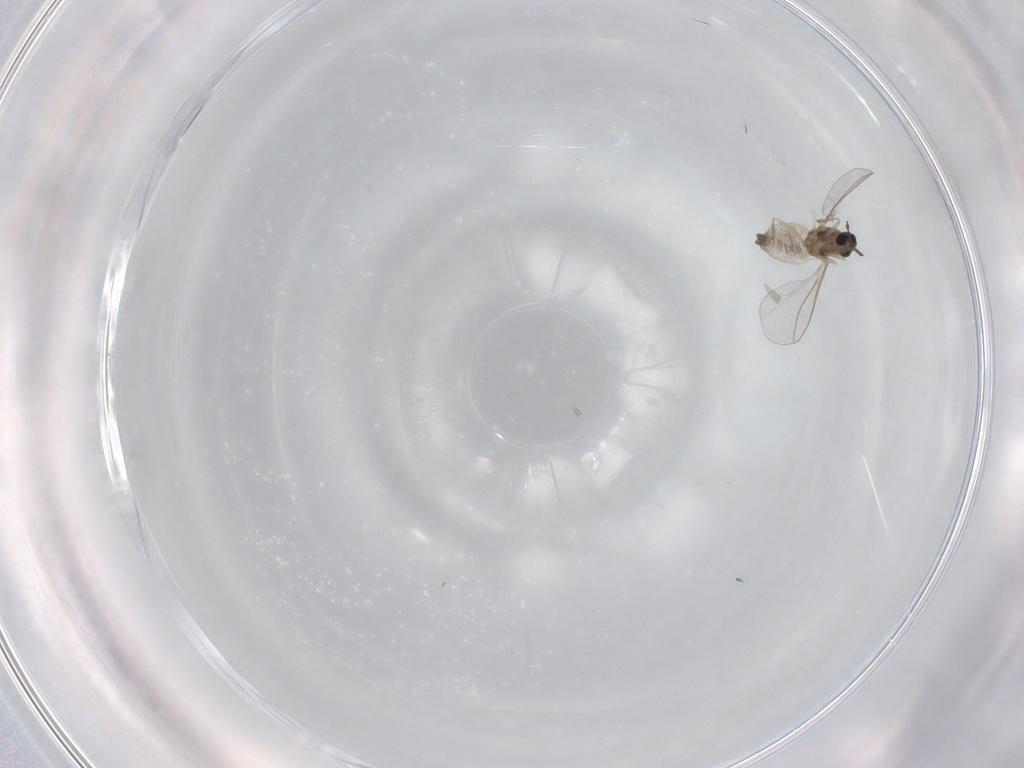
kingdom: Animalia
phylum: Arthropoda
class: Insecta
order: Diptera
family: Cecidomyiidae
